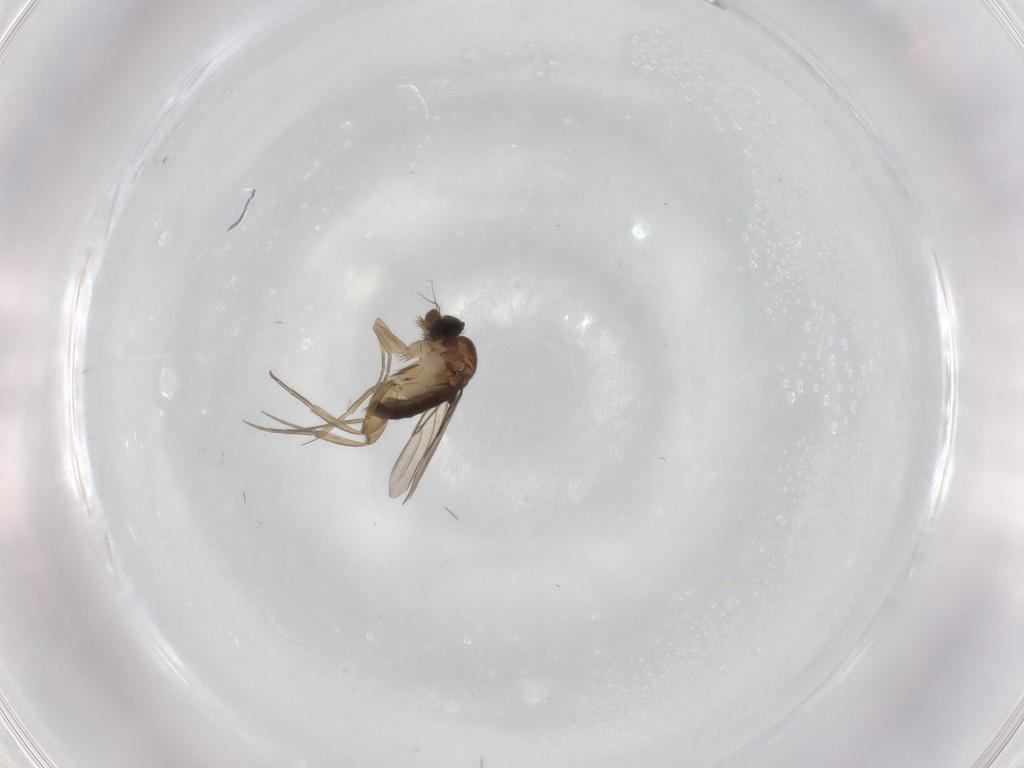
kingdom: Animalia
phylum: Arthropoda
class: Insecta
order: Diptera
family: Phoridae
